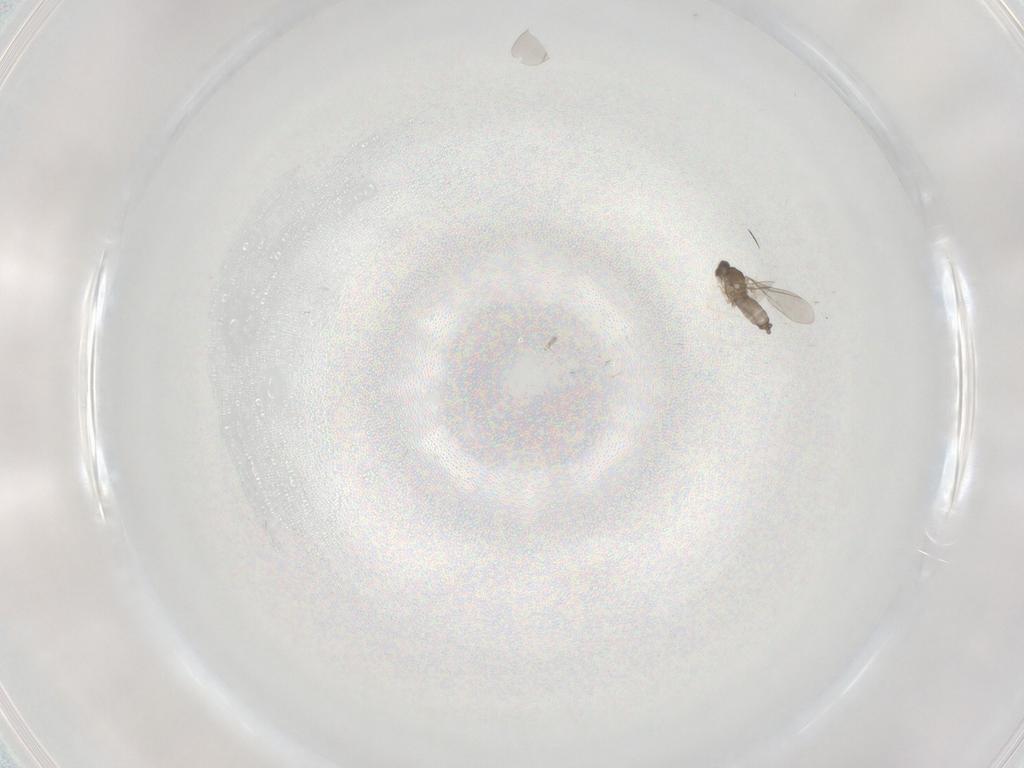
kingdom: Animalia
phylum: Arthropoda
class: Insecta
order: Diptera
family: Cecidomyiidae
